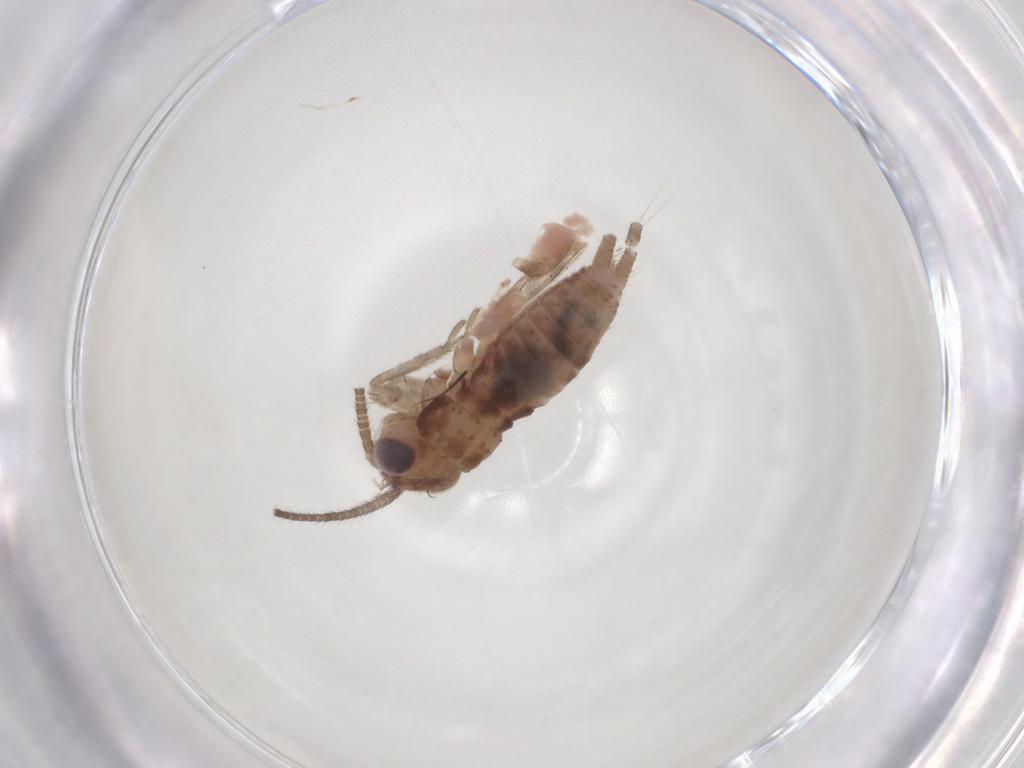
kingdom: Animalia
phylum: Arthropoda
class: Insecta
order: Orthoptera
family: Gryllidae
